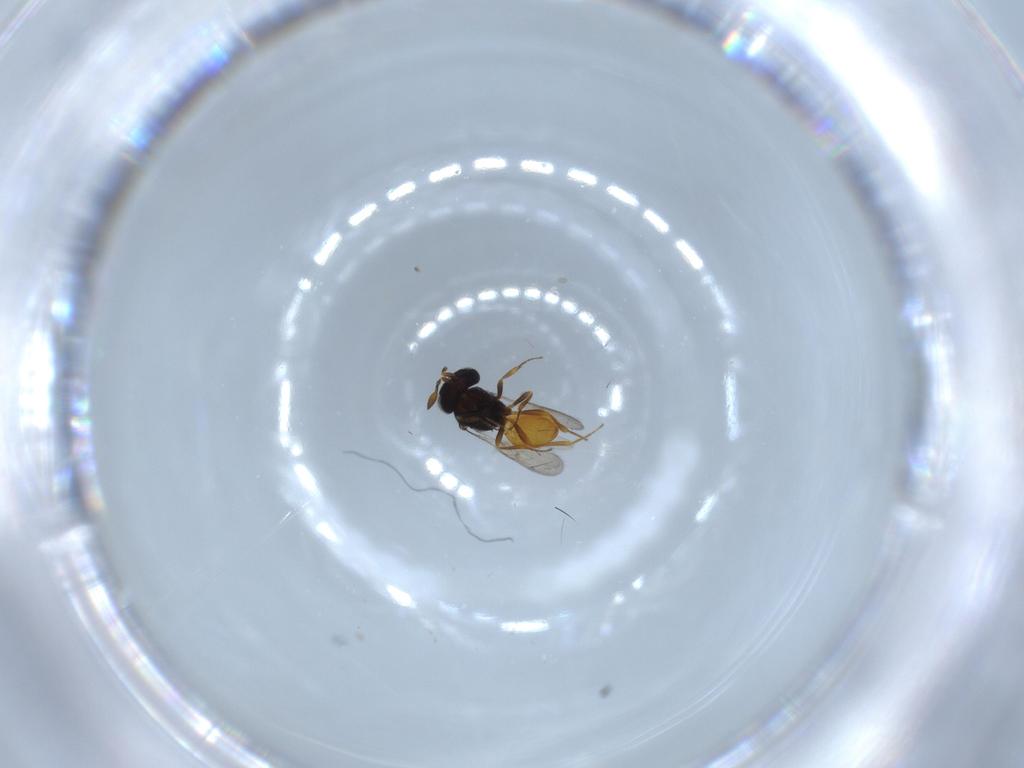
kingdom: Animalia
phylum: Arthropoda
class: Insecta
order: Hymenoptera
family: Scelionidae
